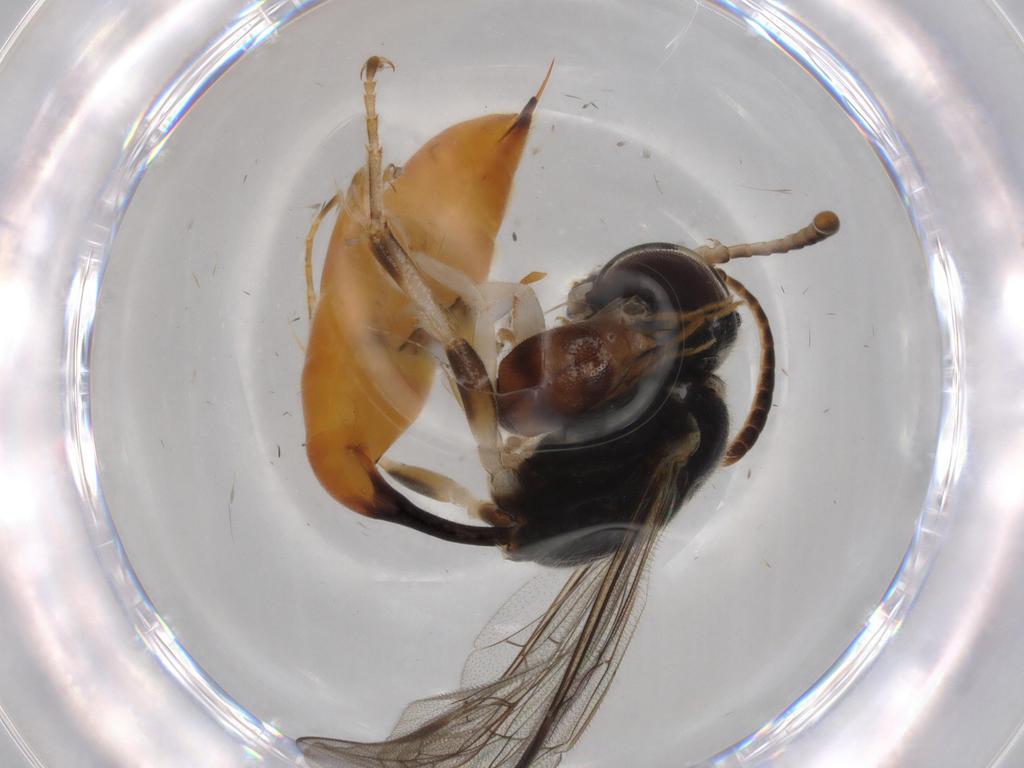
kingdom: Animalia
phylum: Arthropoda
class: Insecta
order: Hymenoptera
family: Crabronidae
